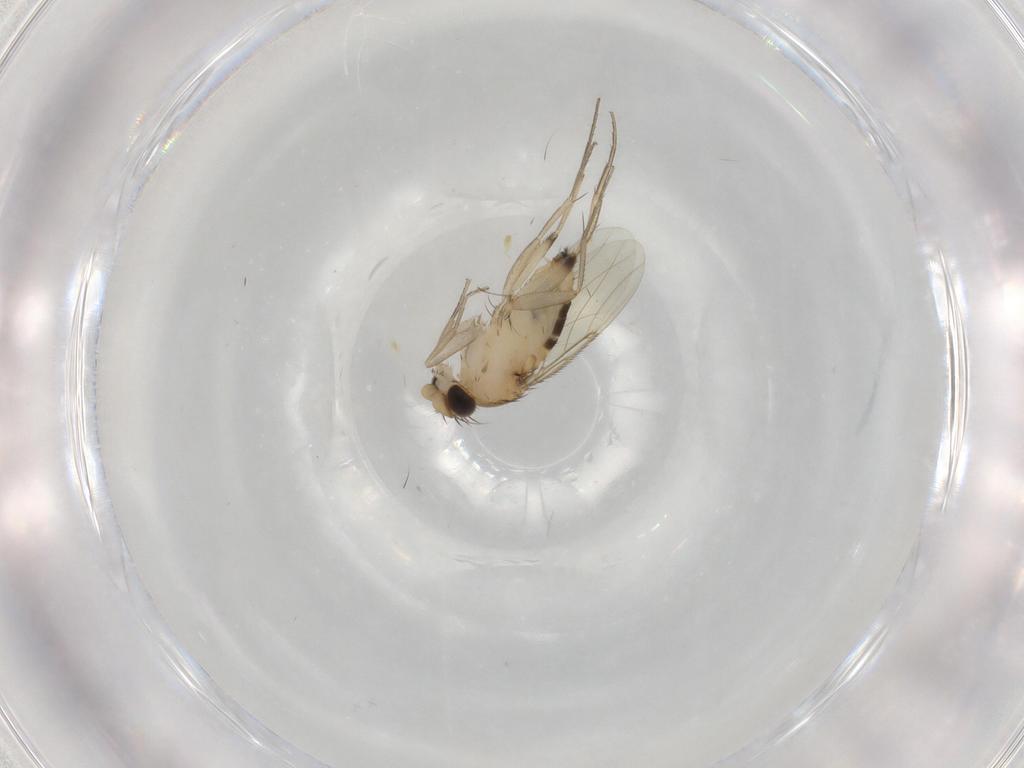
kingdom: Animalia
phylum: Arthropoda
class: Insecta
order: Diptera
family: Phoridae
